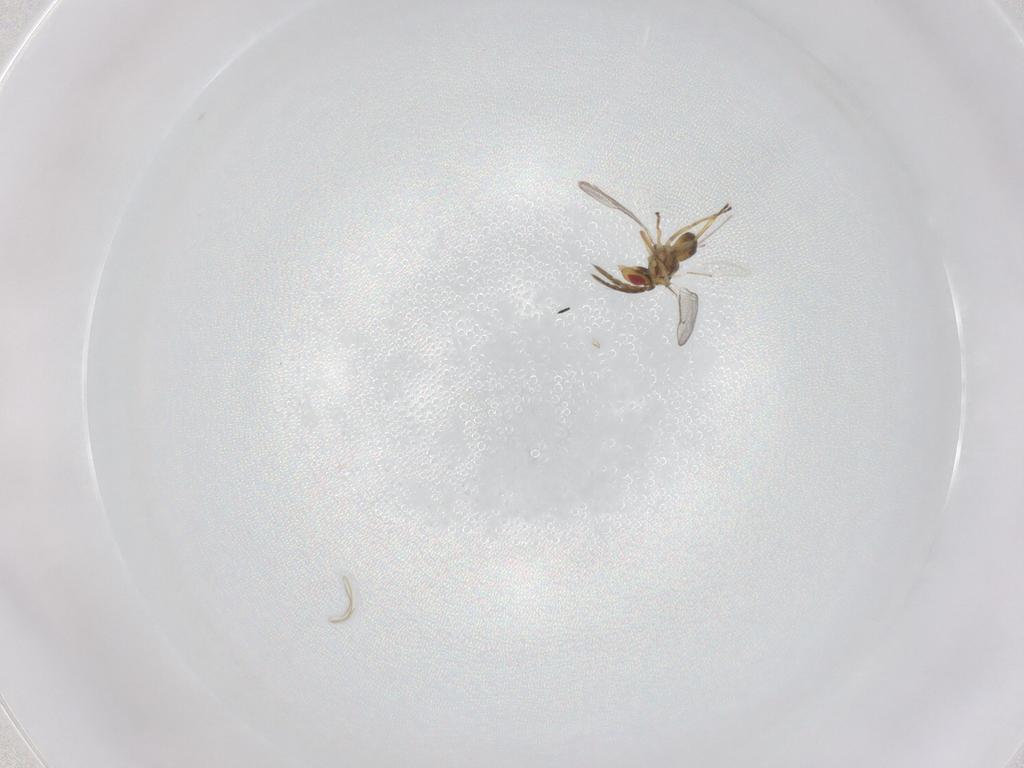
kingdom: Animalia
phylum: Arthropoda
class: Insecta
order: Hymenoptera
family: Eulophidae
